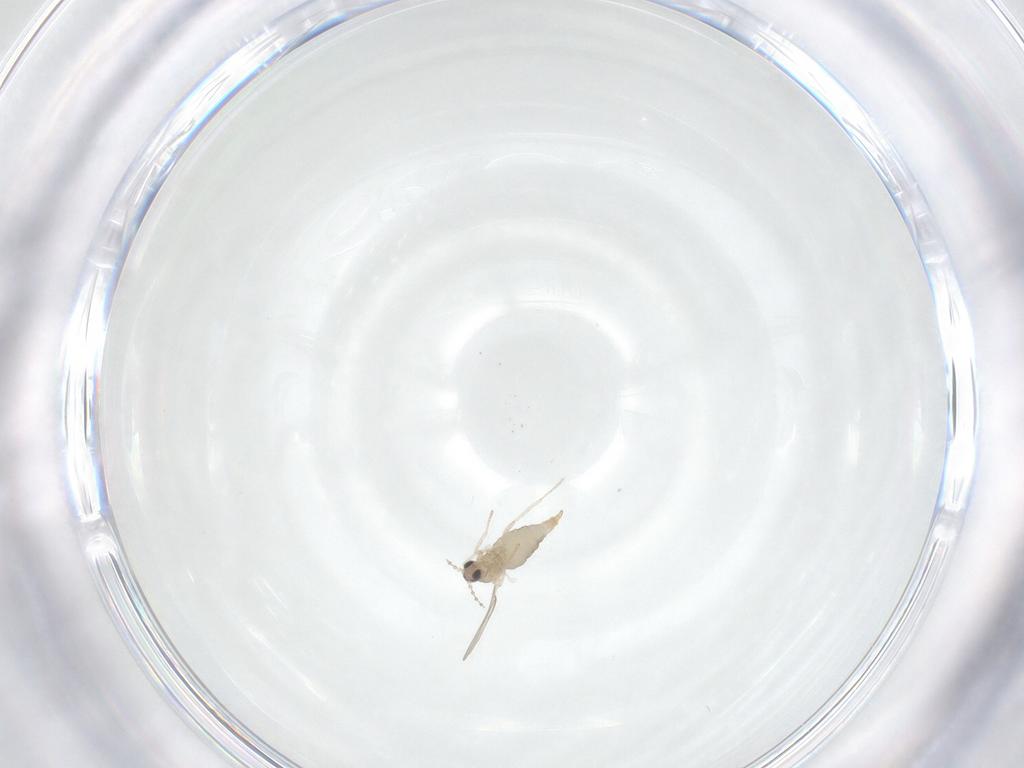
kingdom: Animalia
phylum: Arthropoda
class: Insecta
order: Diptera
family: Cecidomyiidae
